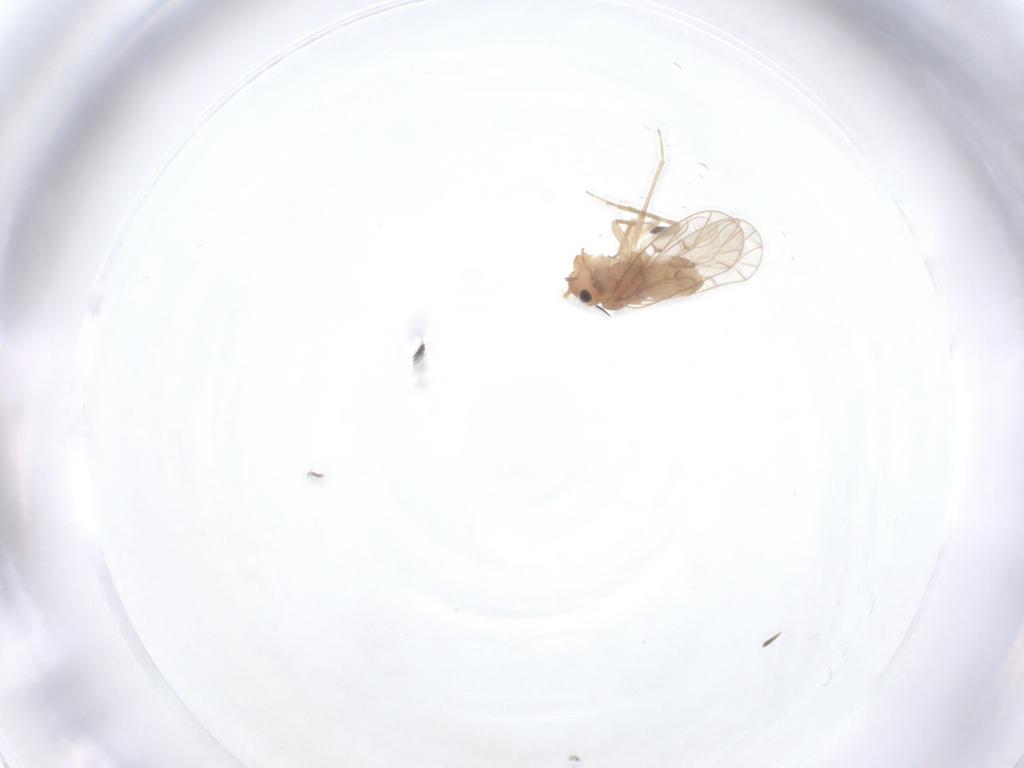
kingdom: Animalia
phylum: Arthropoda
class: Insecta
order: Psocodea
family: Ectopsocidae
